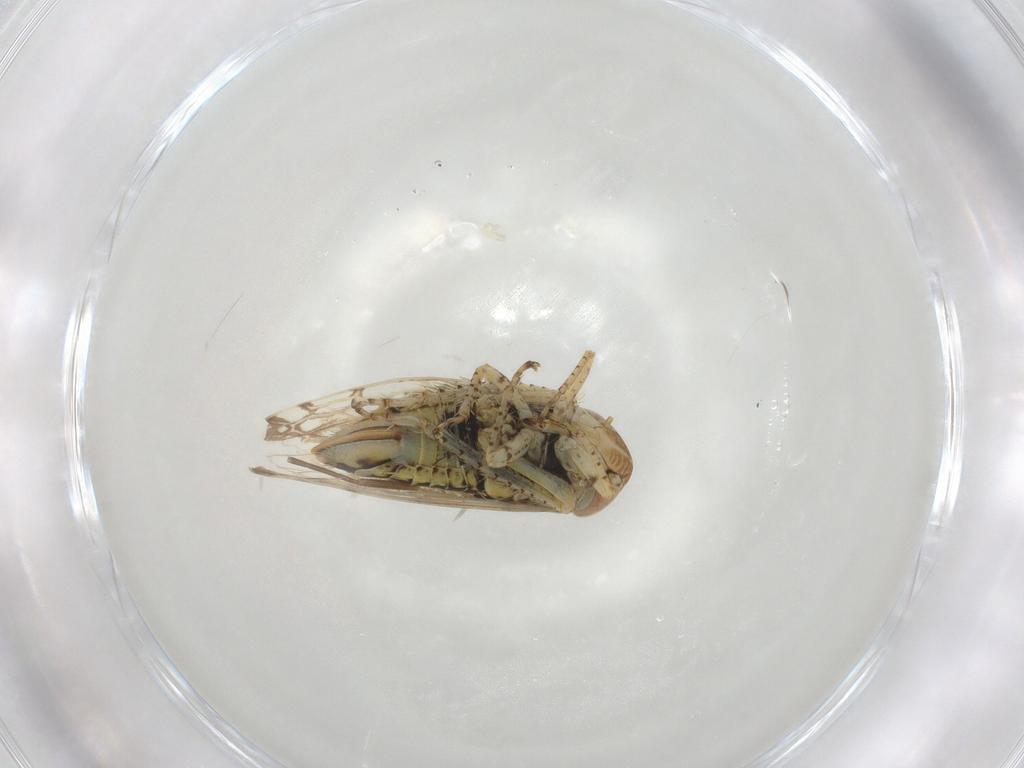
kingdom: Animalia
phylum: Arthropoda
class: Insecta
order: Hemiptera
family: Cicadellidae
